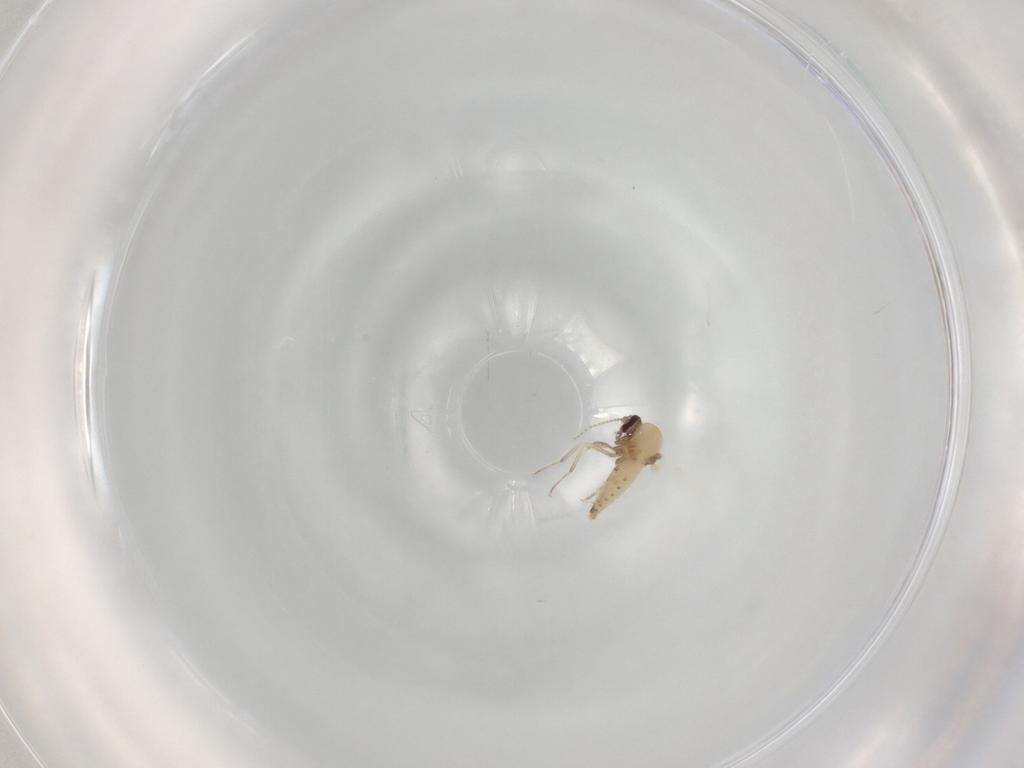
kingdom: Animalia
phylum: Arthropoda
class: Insecta
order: Diptera
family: Ceratopogonidae
